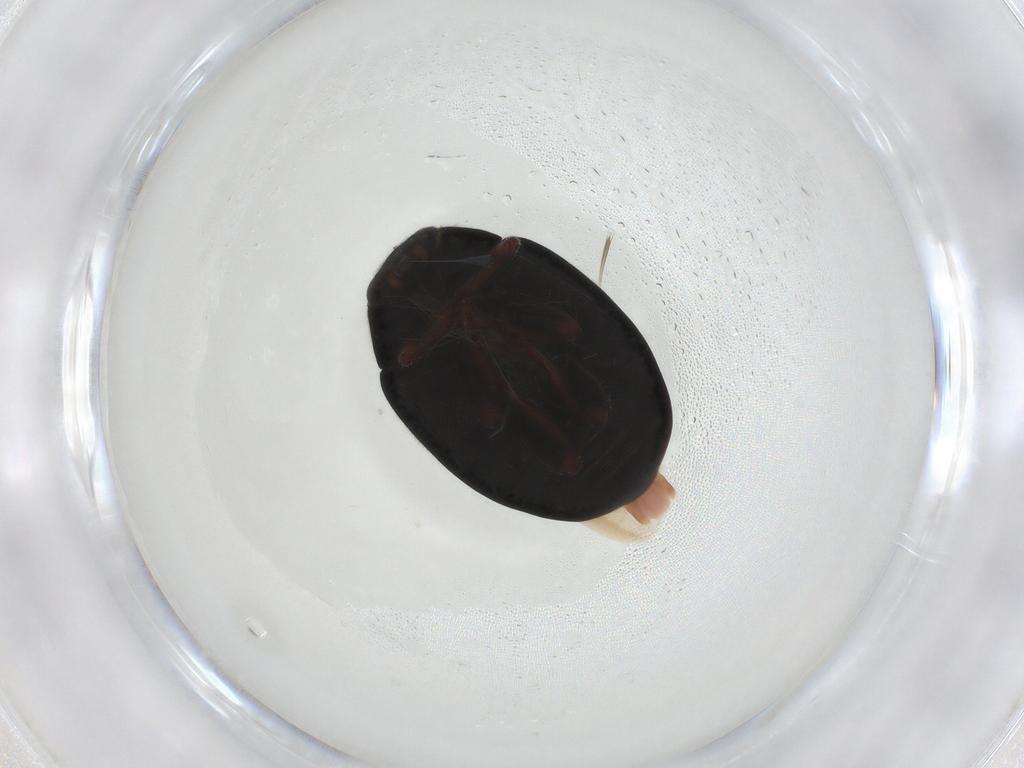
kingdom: Animalia
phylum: Arthropoda
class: Insecta
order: Coleoptera
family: Coccinellidae
